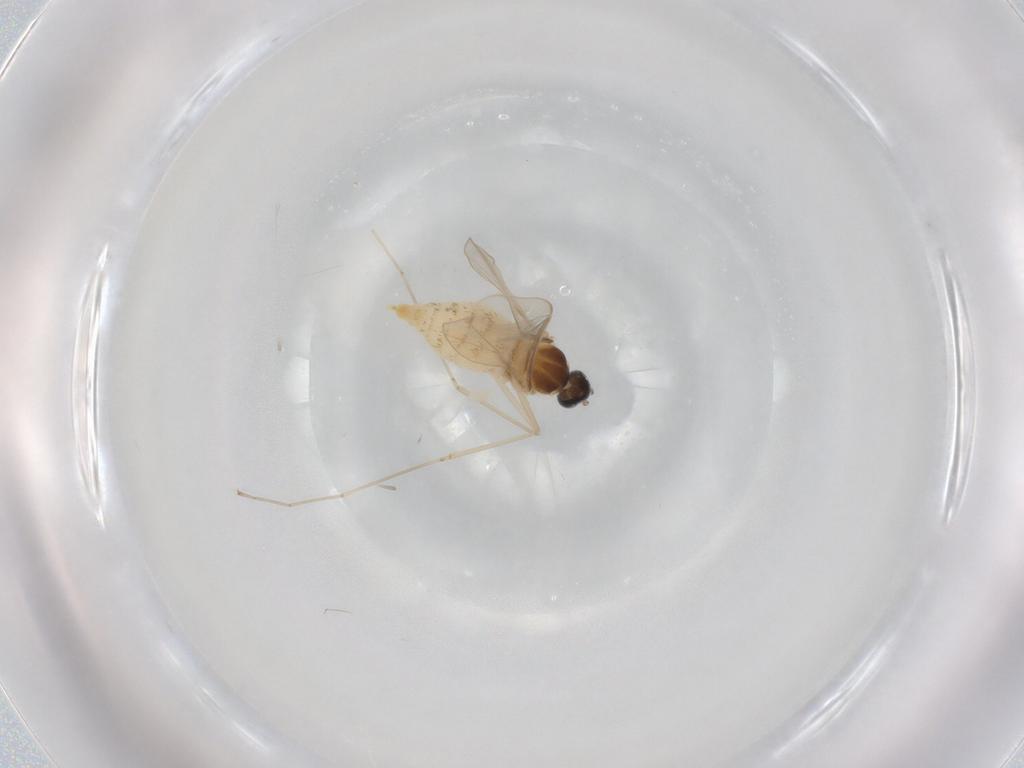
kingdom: Animalia
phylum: Arthropoda
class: Insecta
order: Diptera
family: Cecidomyiidae
